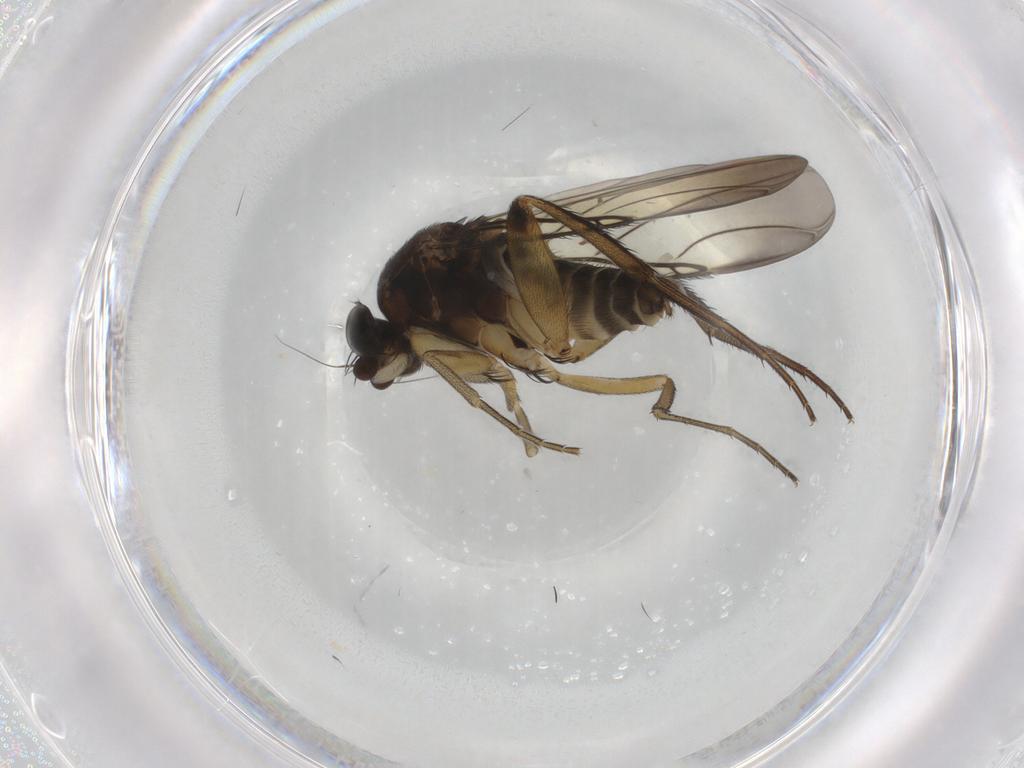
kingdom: Animalia
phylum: Arthropoda
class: Insecta
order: Diptera
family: Phoridae
